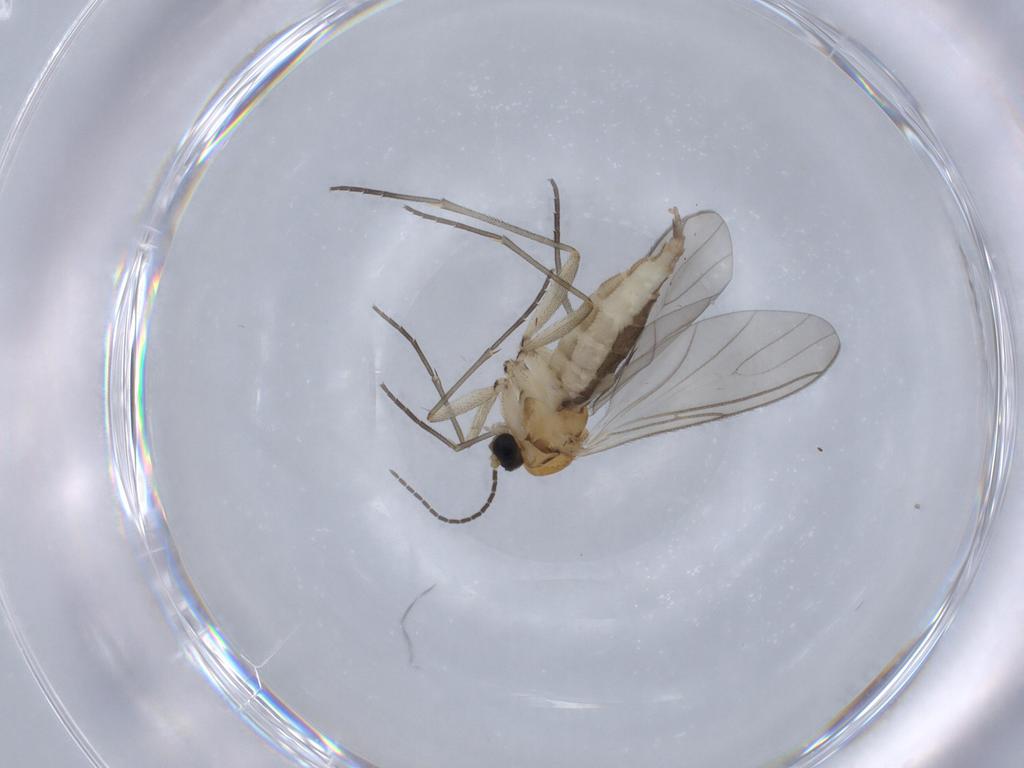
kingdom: Animalia
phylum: Arthropoda
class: Insecta
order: Diptera
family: Sciaridae
